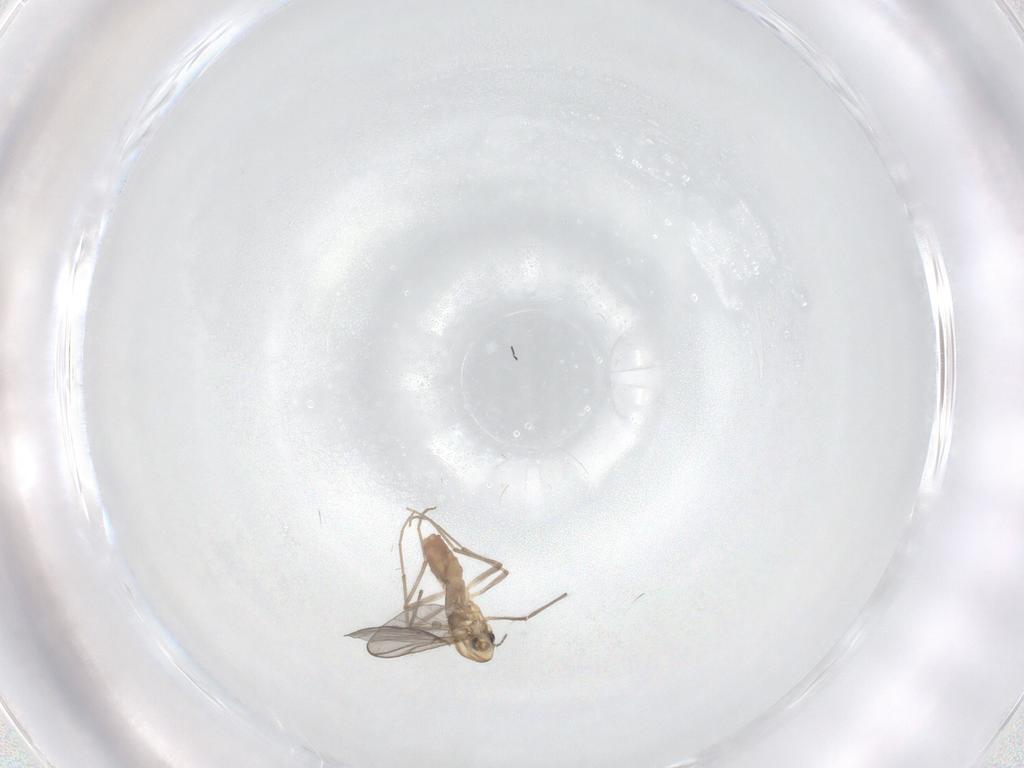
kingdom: Animalia
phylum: Arthropoda
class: Insecta
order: Diptera
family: Chironomidae
